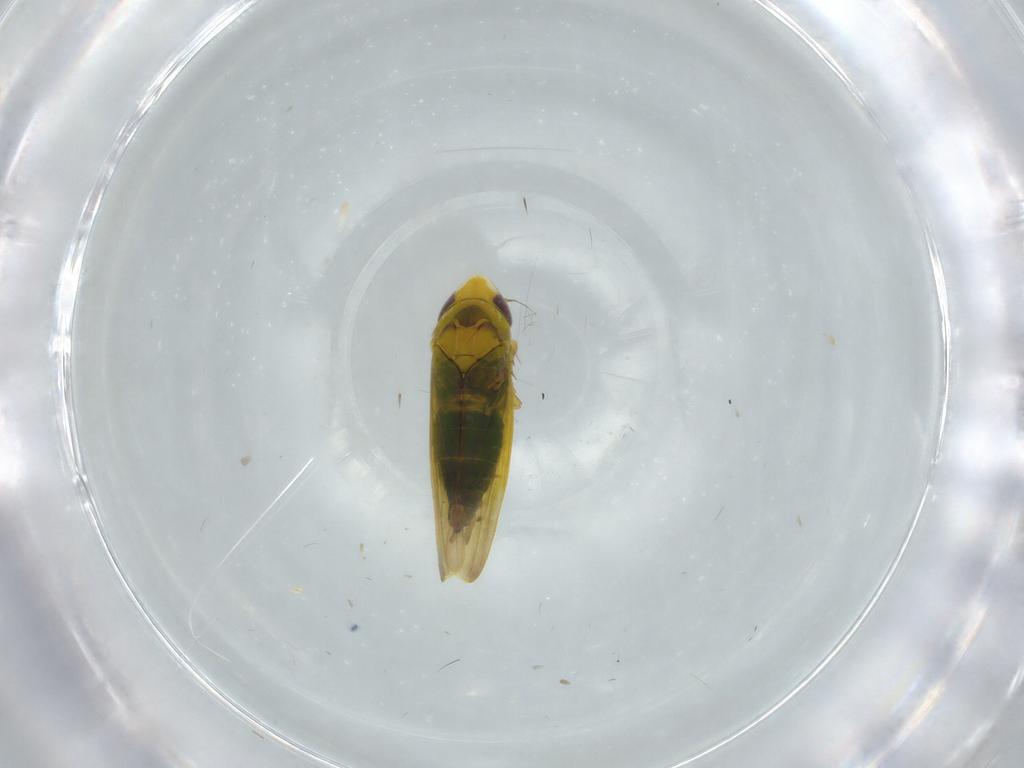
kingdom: Animalia
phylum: Arthropoda
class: Insecta
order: Hemiptera
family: Cicadellidae
